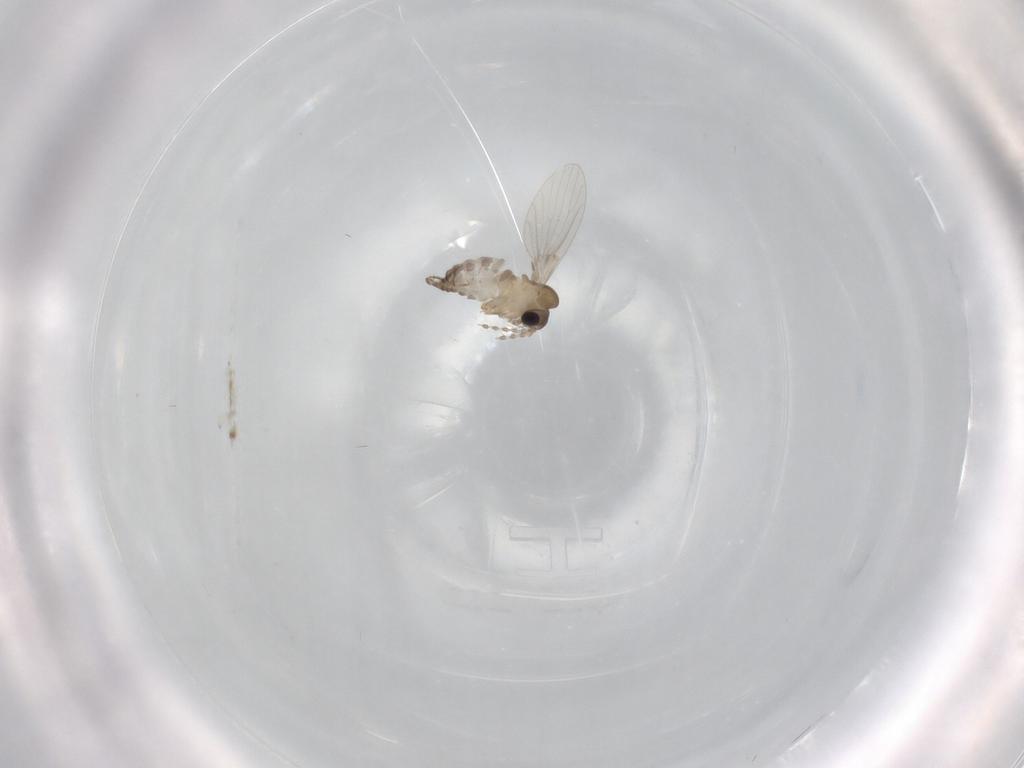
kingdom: Animalia
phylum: Arthropoda
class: Insecta
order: Diptera
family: Psychodidae
